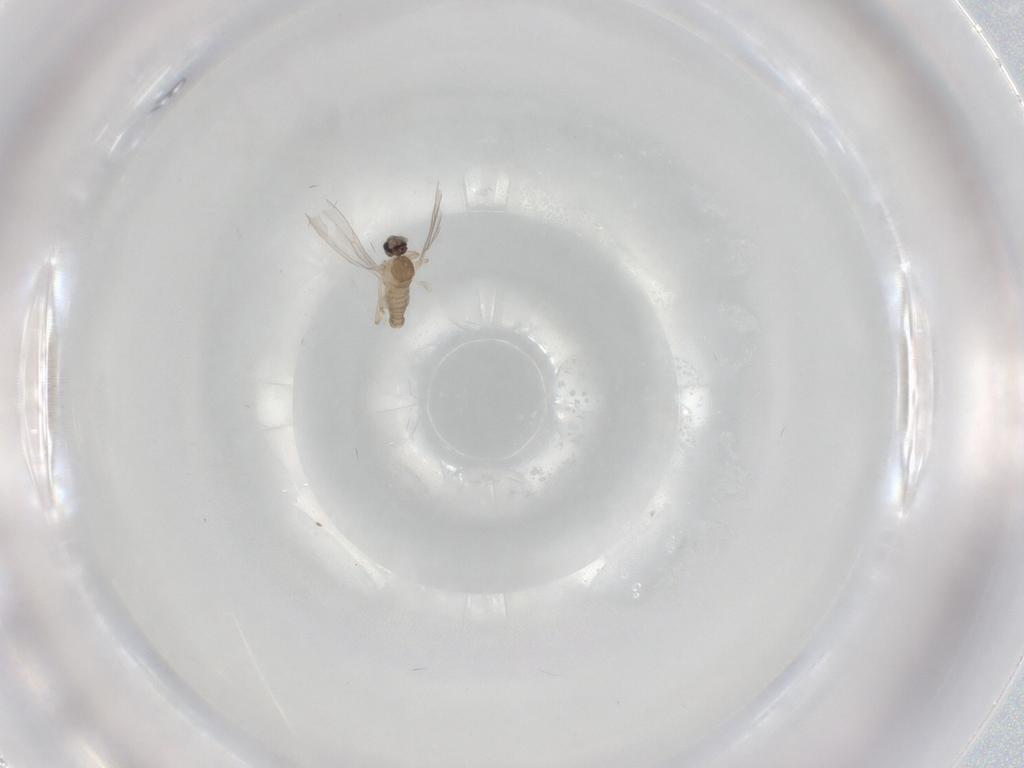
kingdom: Animalia
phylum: Arthropoda
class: Insecta
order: Diptera
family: Cecidomyiidae
